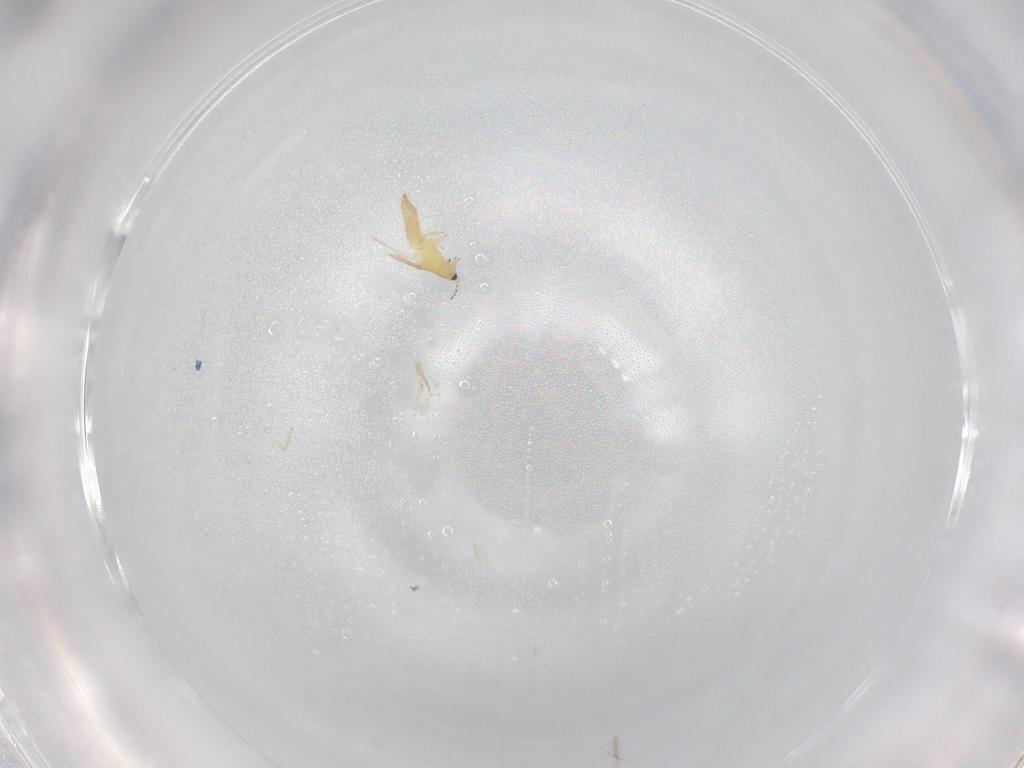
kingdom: Animalia
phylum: Arthropoda
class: Insecta
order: Thysanoptera
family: Thripidae
